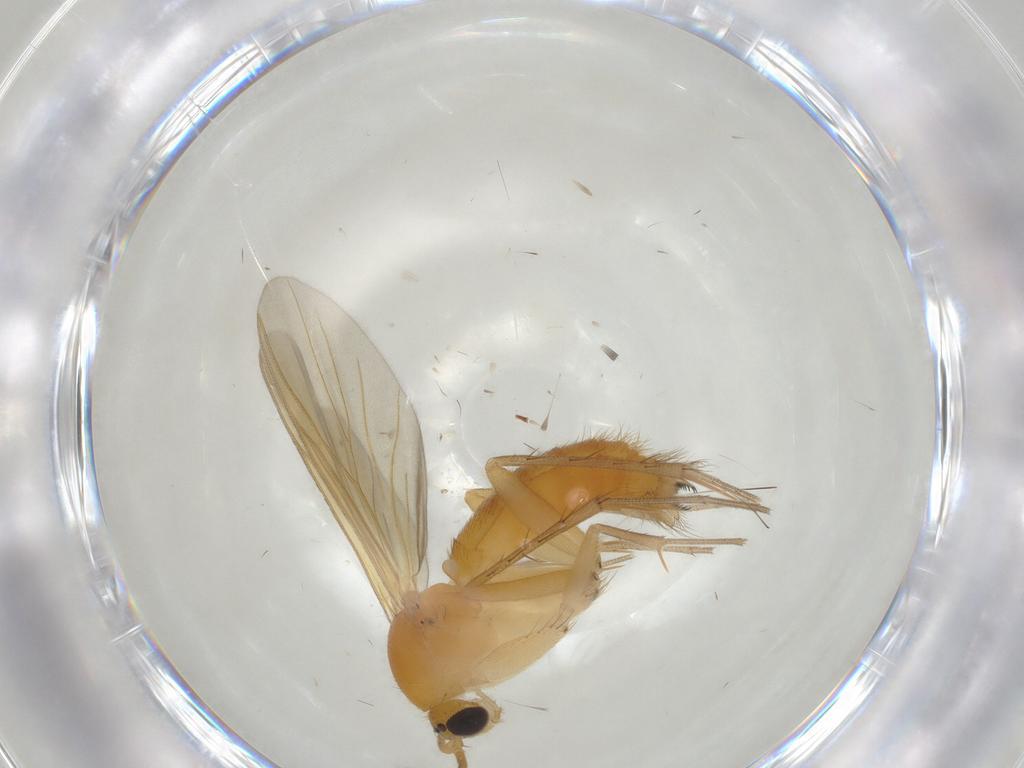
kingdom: Animalia
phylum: Arthropoda
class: Insecta
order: Diptera
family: Mycetophilidae
